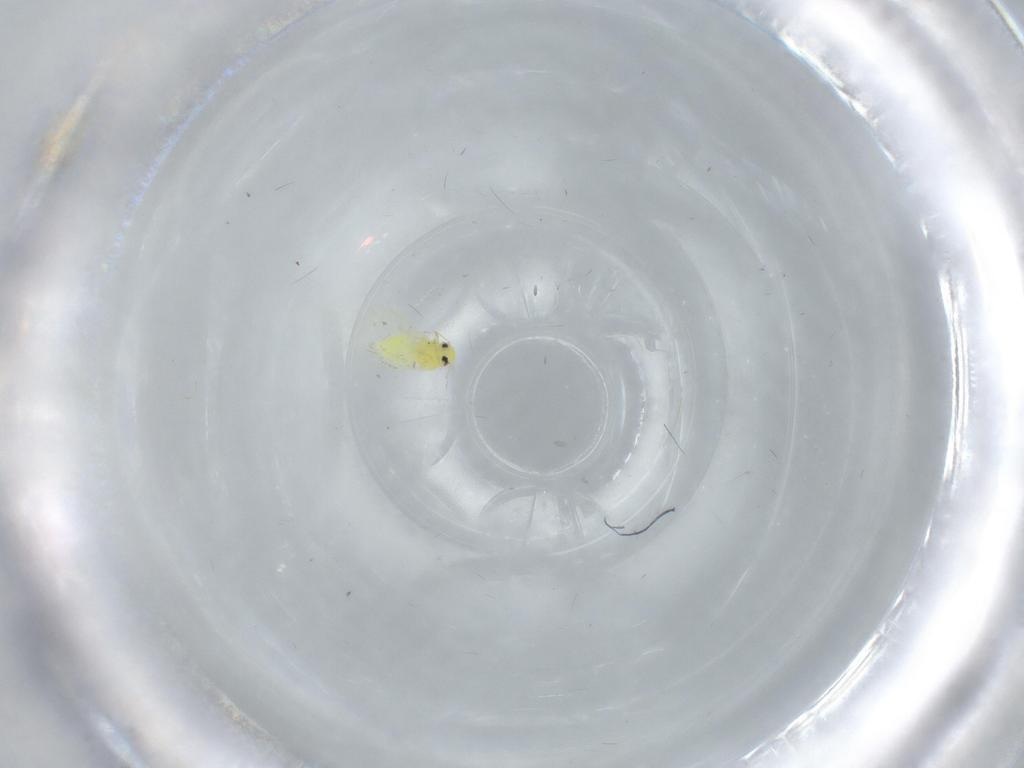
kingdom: Animalia
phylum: Arthropoda
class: Insecta
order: Hemiptera
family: Aleyrodidae
